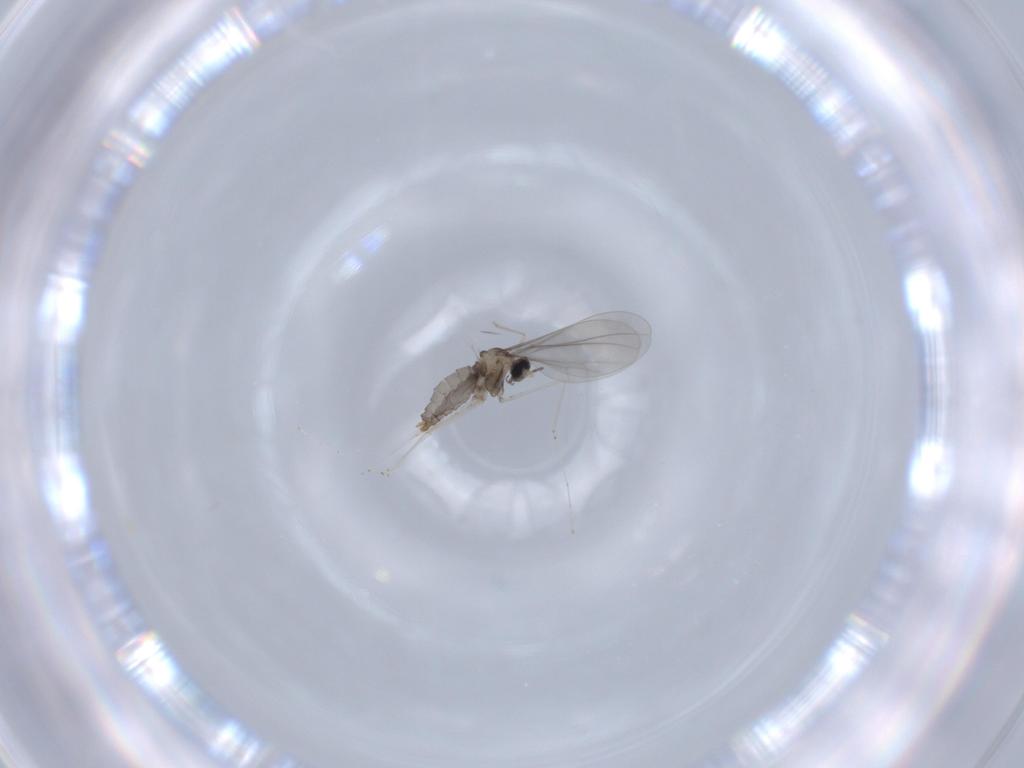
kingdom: Animalia
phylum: Arthropoda
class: Insecta
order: Diptera
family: Cecidomyiidae
